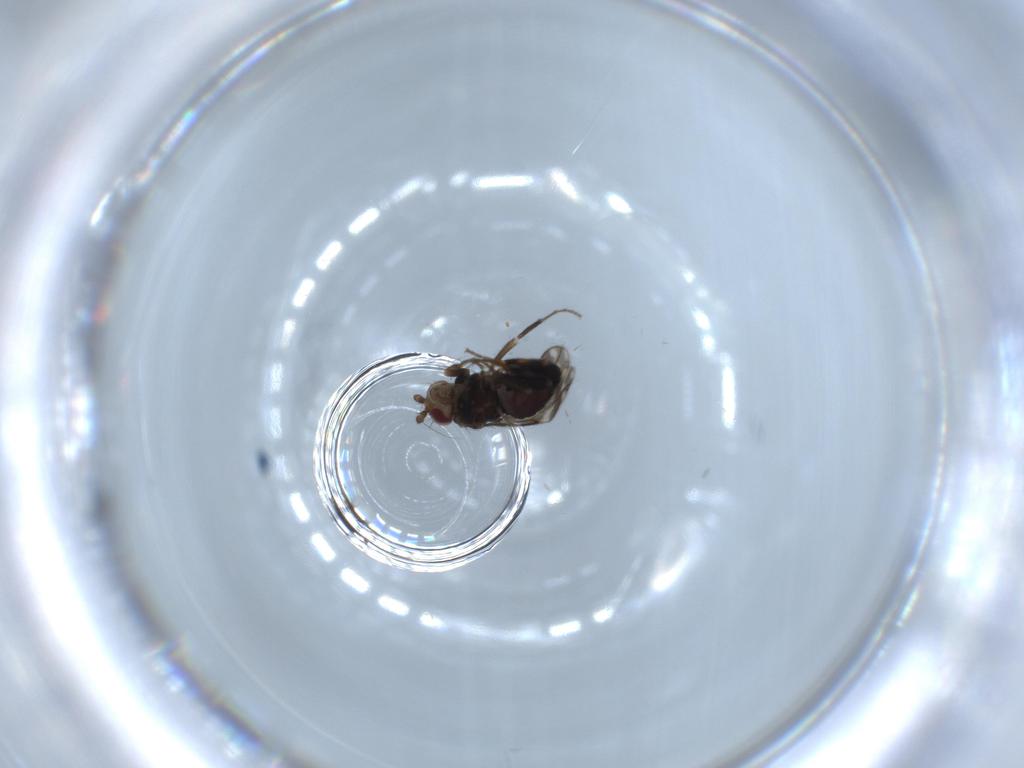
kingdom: Animalia
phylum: Arthropoda
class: Insecta
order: Diptera
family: Sphaeroceridae
